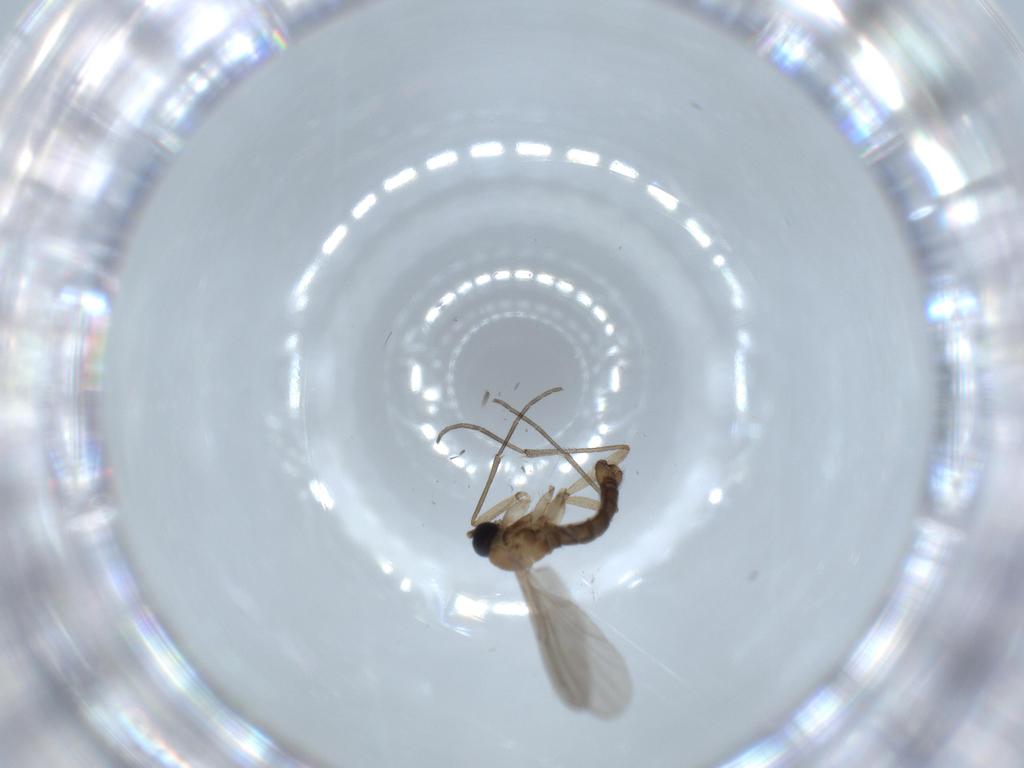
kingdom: Animalia
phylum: Arthropoda
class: Insecta
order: Diptera
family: Sciaridae
